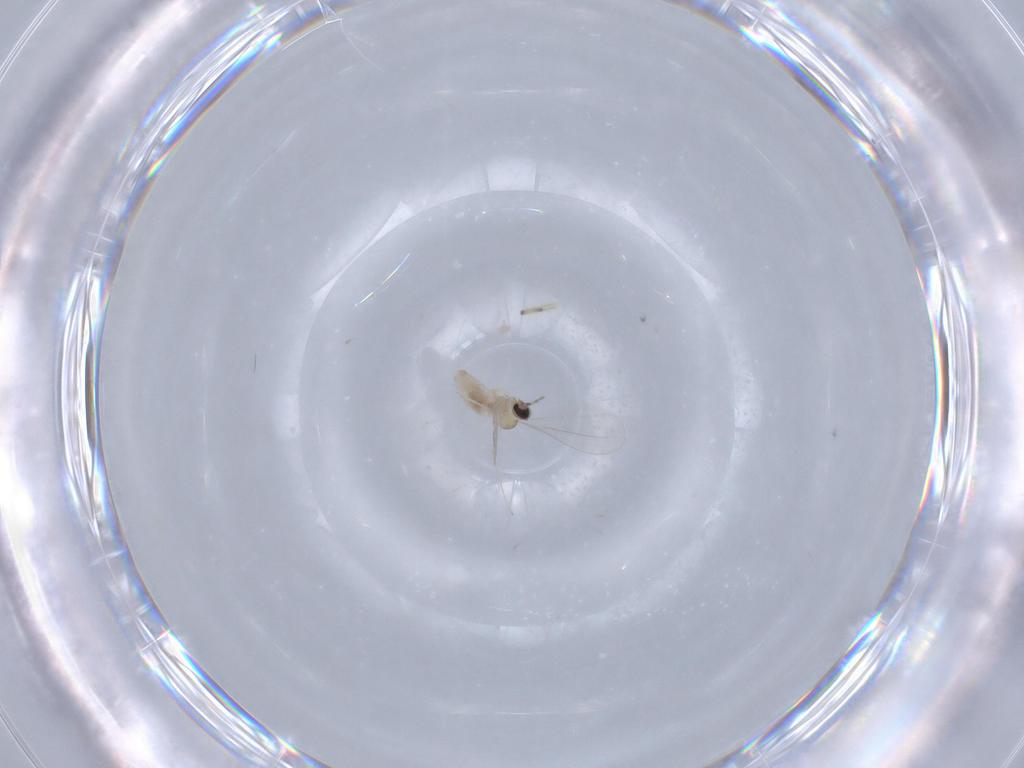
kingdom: Animalia
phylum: Arthropoda
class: Insecta
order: Diptera
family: Cecidomyiidae
